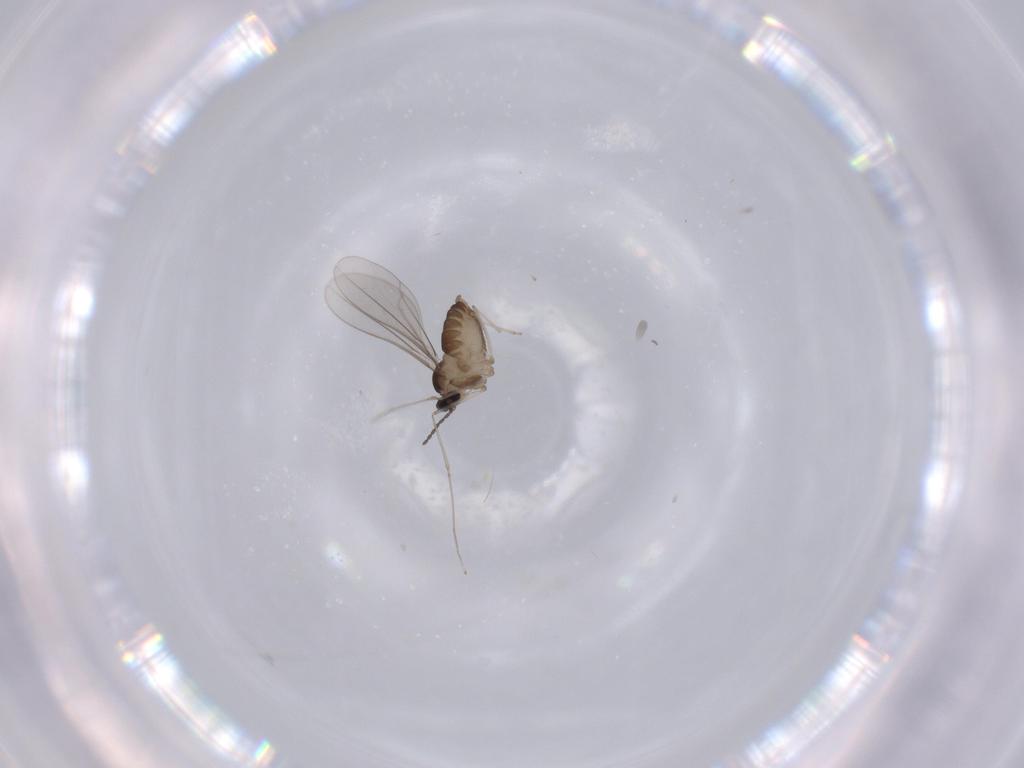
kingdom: Animalia
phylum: Arthropoda
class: Insecta
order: Diptera
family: Cecidomyiidae
